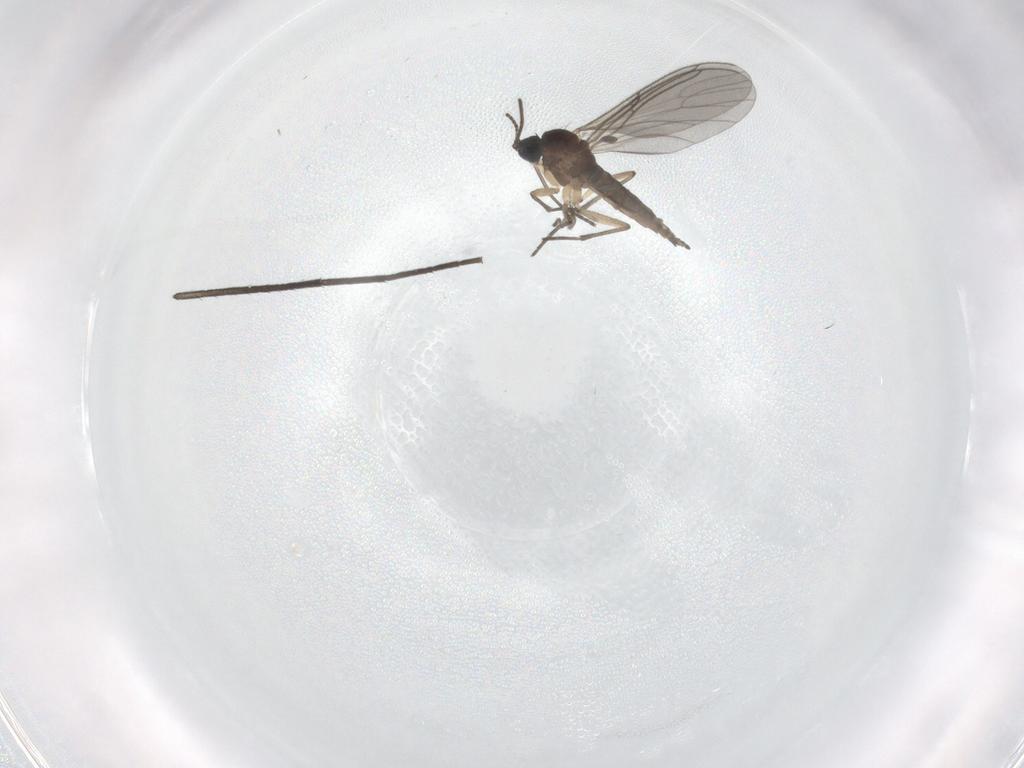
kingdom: Animalia
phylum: Arthropoda
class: Insecta
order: Diptera
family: Sciaridae
